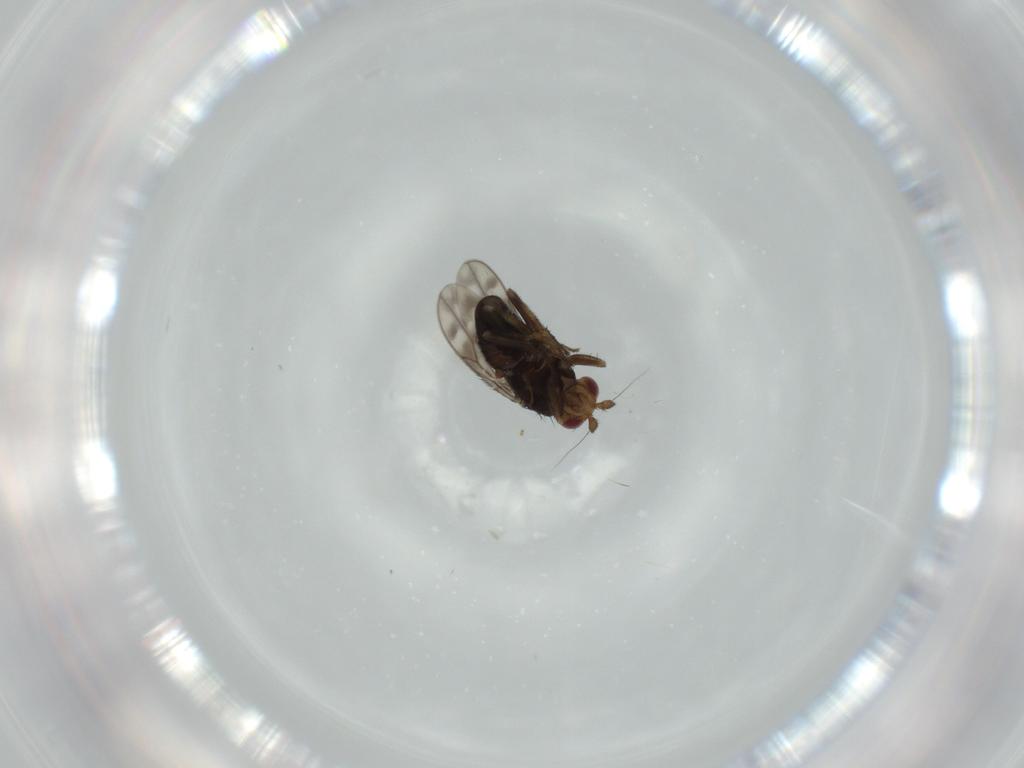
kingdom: Animalia
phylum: Arthropoda
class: Insecta
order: Diptera
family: Sphaeroceridae
